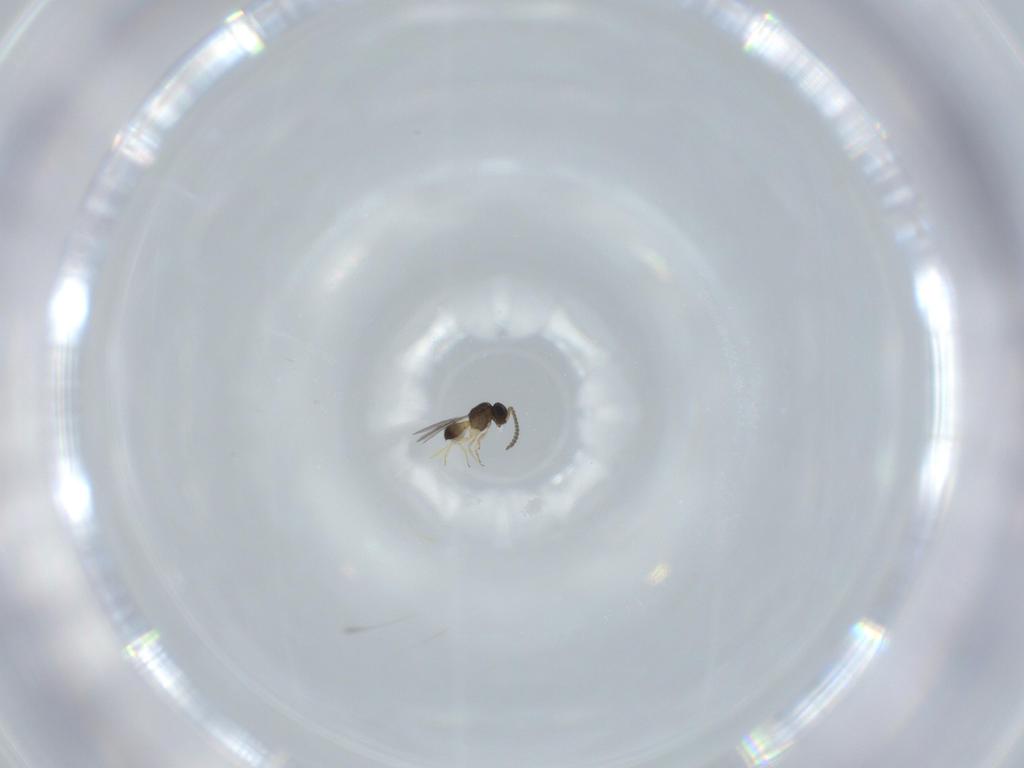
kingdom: Animalia
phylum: Arthropoda
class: Insecta
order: Hymenoptera
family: Scelionidae
